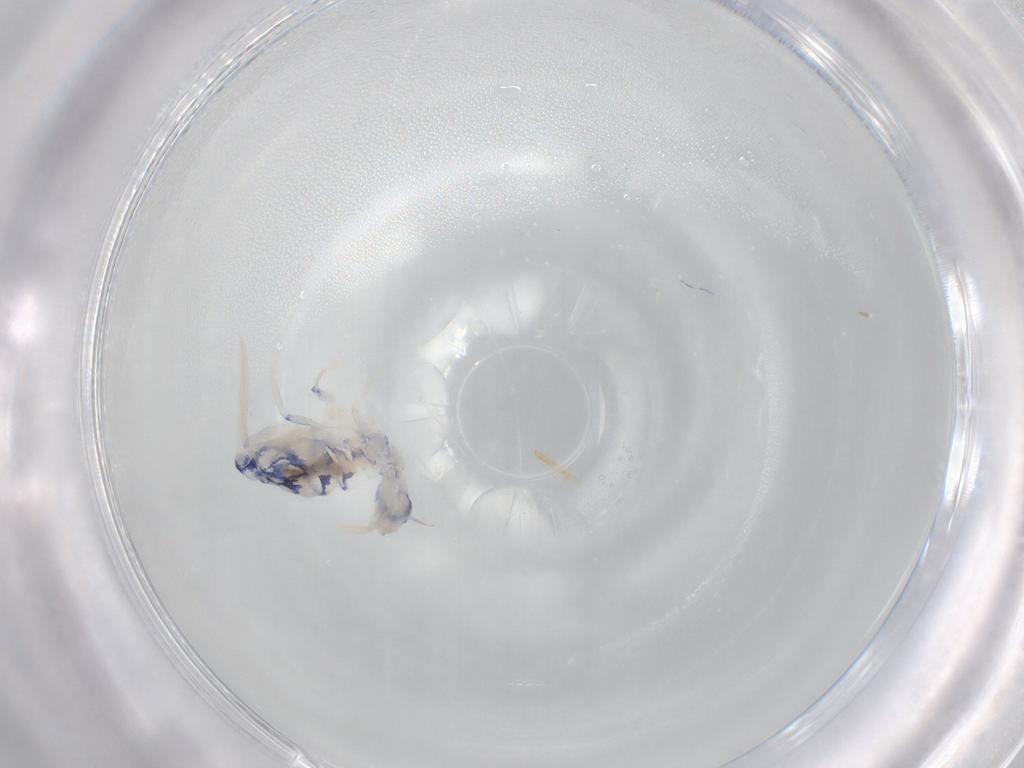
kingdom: Animalia
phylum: Arthropoda
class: Collembola
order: Entomobryomorpha
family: Entomobryidae
